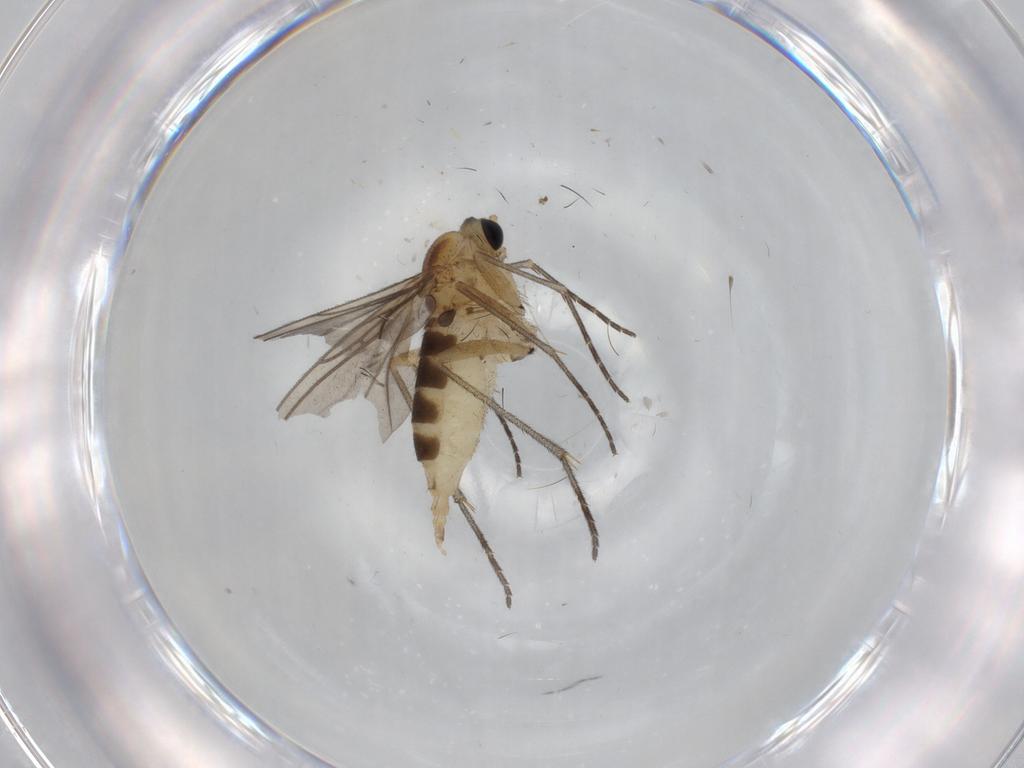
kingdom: Animalia
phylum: Arthropoda
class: Insecta
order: Diptera
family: Sciaridae
